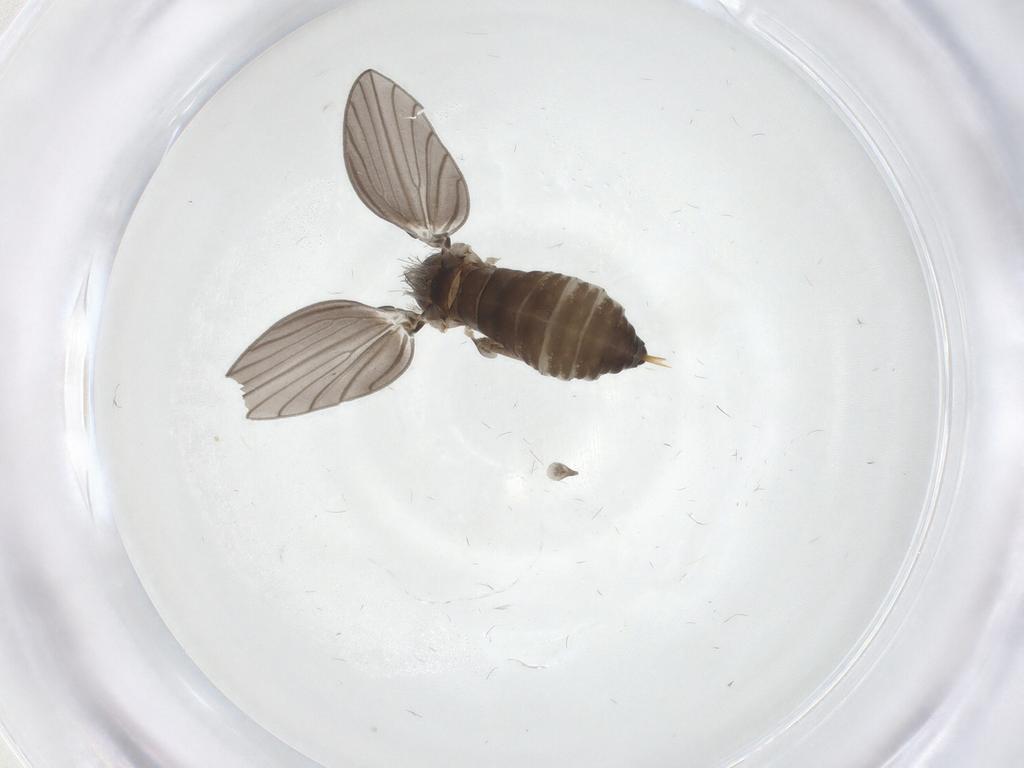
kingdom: Animalia
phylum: Arthropoda
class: Insecta
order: Diptera
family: Psychodidae
